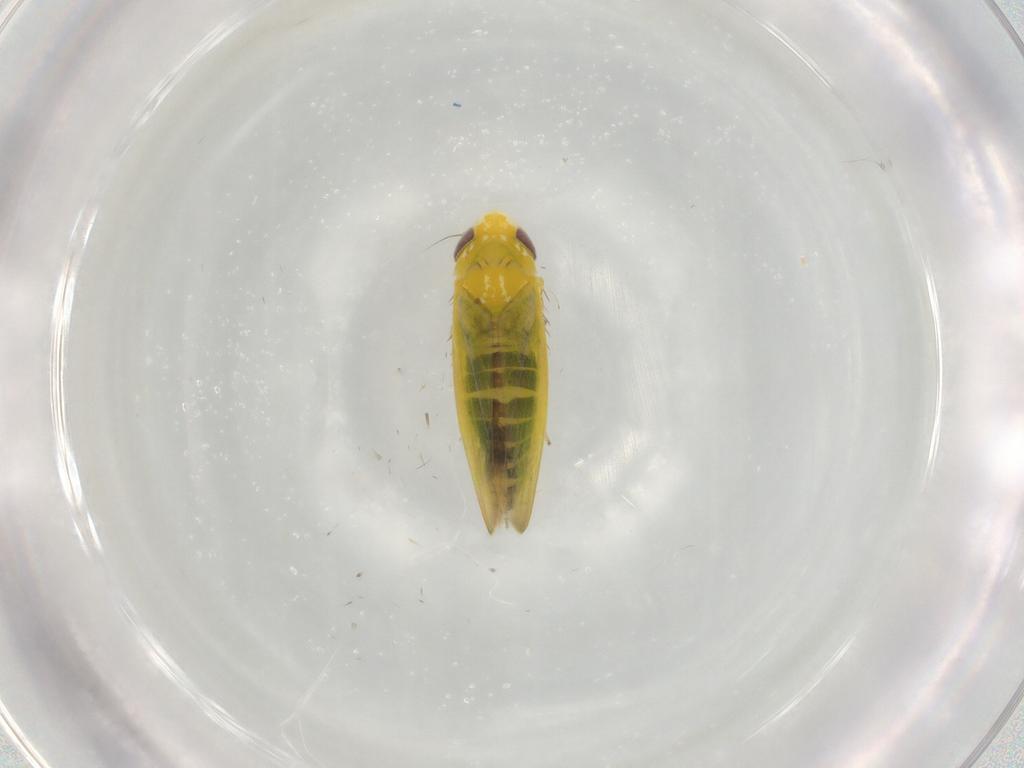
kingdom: Animalia
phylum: Arthropoda
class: Insecta
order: Hemiptera
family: Cicadellidae
